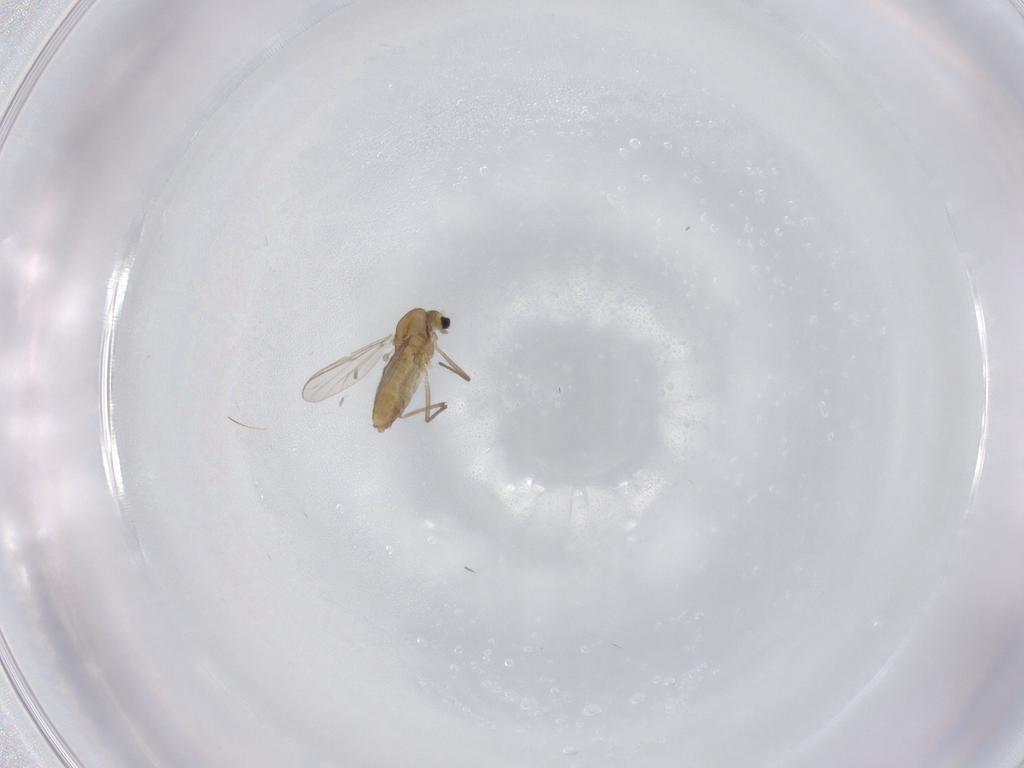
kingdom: Animalia
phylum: Arthropoda
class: Insecta
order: Diptera
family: Chironomidae
